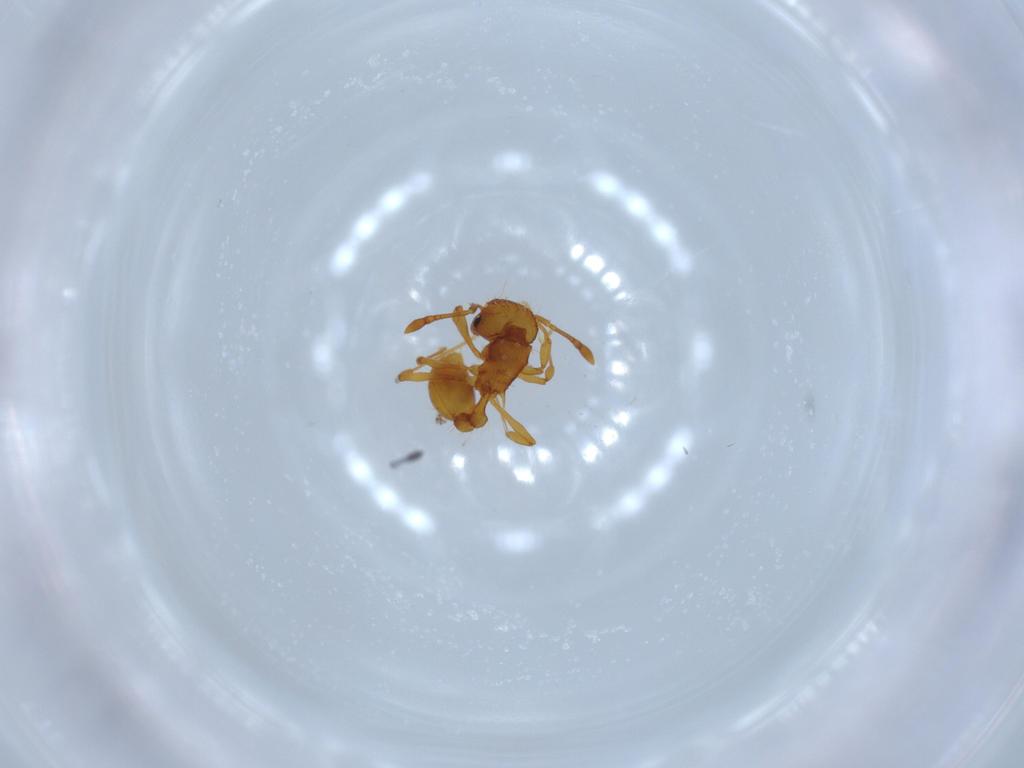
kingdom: Animalia
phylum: Arthropoda
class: Insecta
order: Hymenoptera
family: Formicidae
